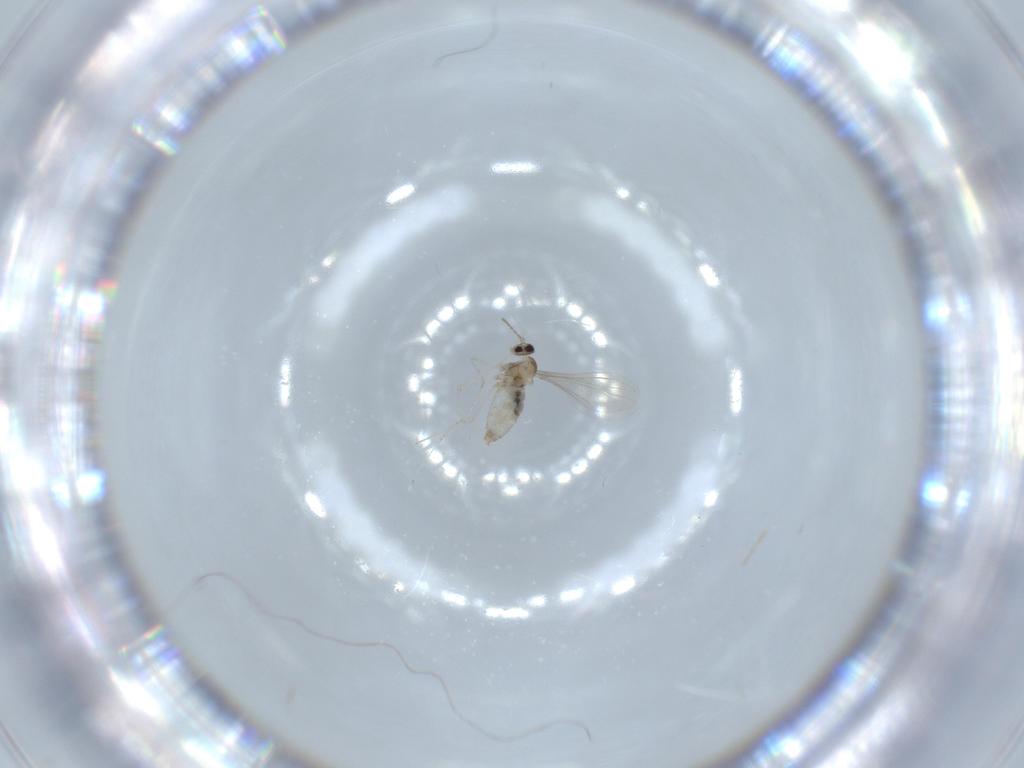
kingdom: Animalia
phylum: Arthropoda
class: Insecta
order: Diptera
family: Cecidomyiidae
